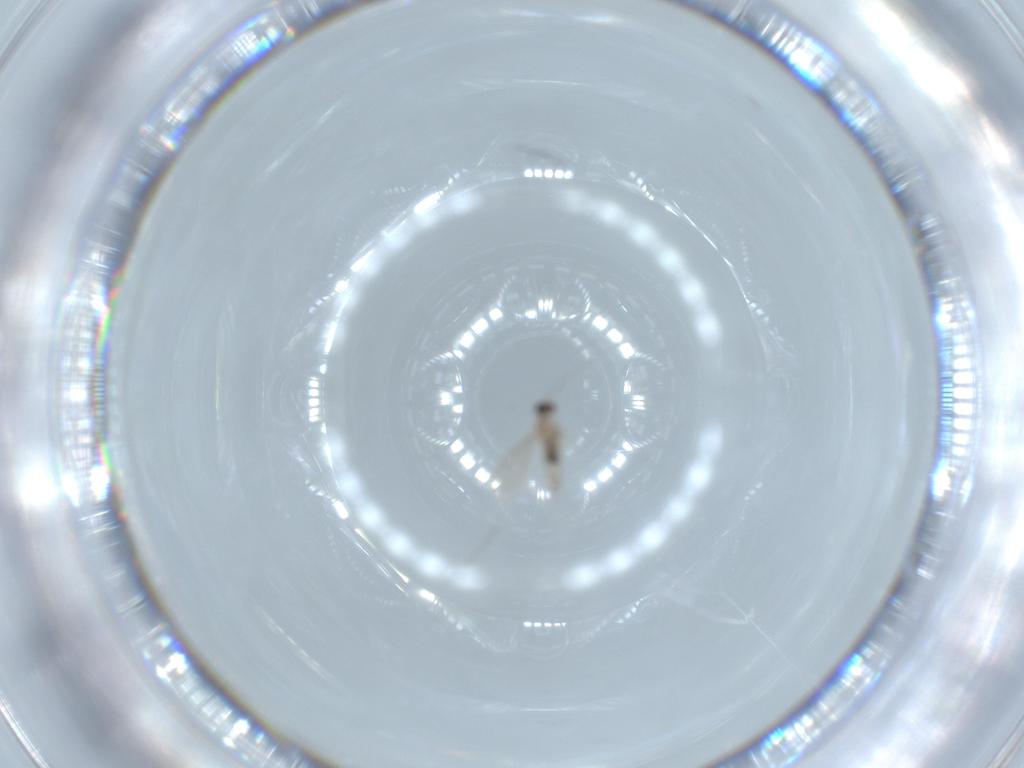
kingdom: Animalia
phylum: Arthropoda
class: Insecta
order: Diptera
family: Cecidomyiidae
